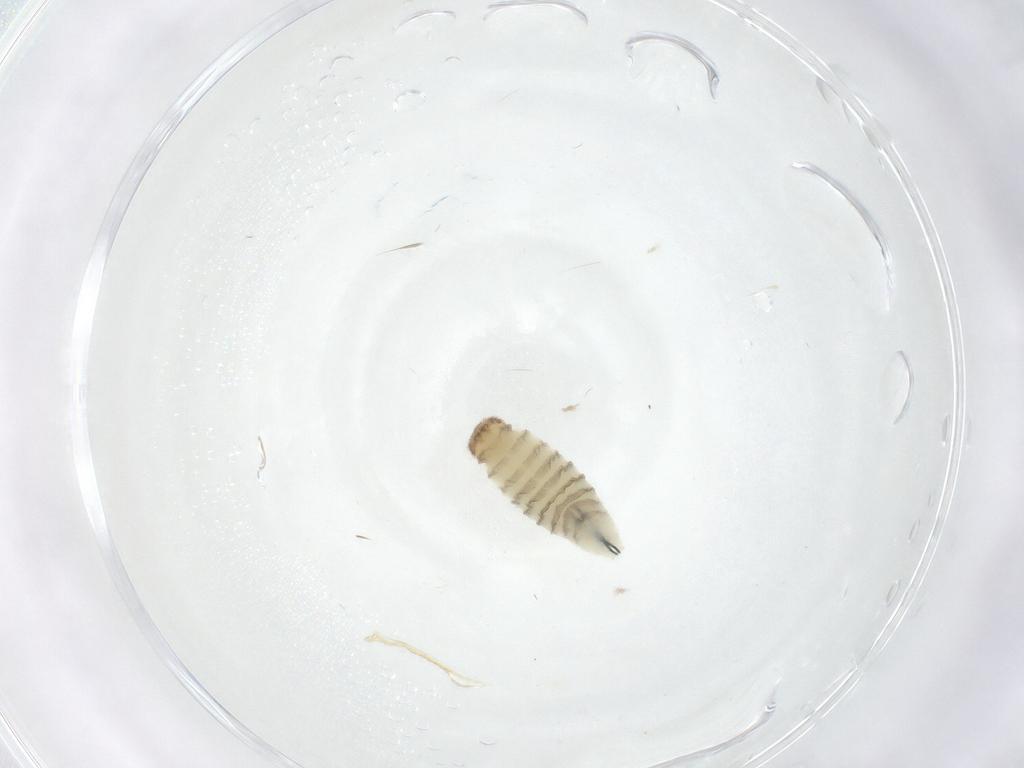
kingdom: Animalia
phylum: Arthropoda
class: Insecta
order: Diptera
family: Sarcophagidae
